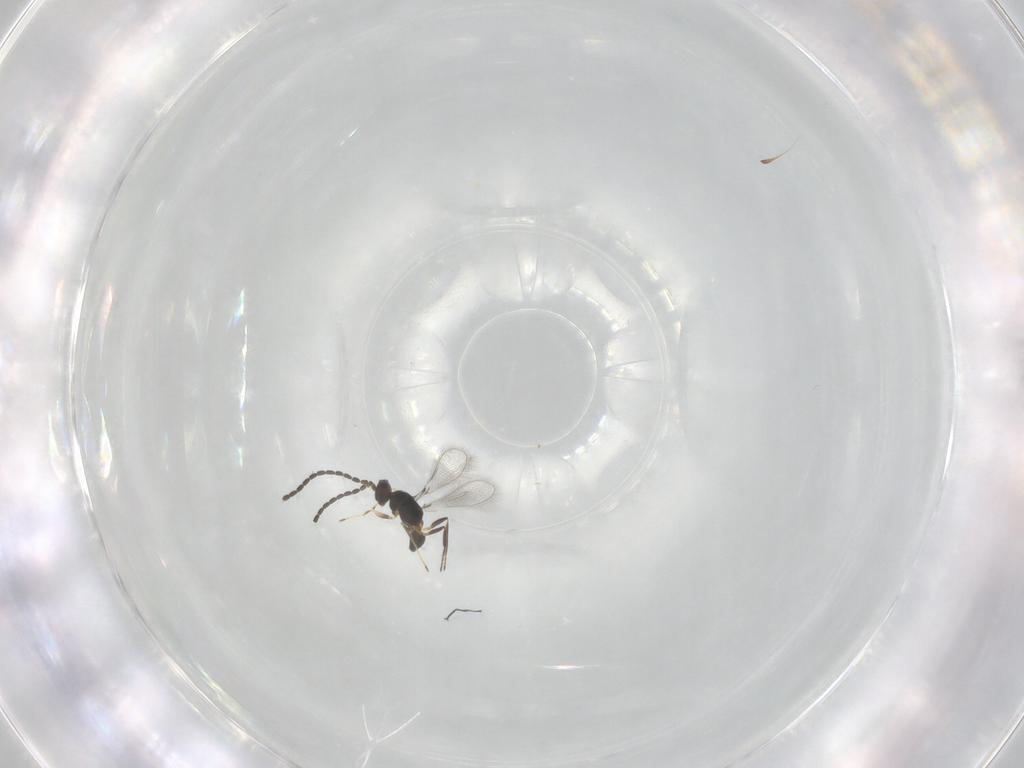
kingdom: Animalia
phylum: Arthropoda
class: Insecta
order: Hymenoptera
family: Mymaridae
